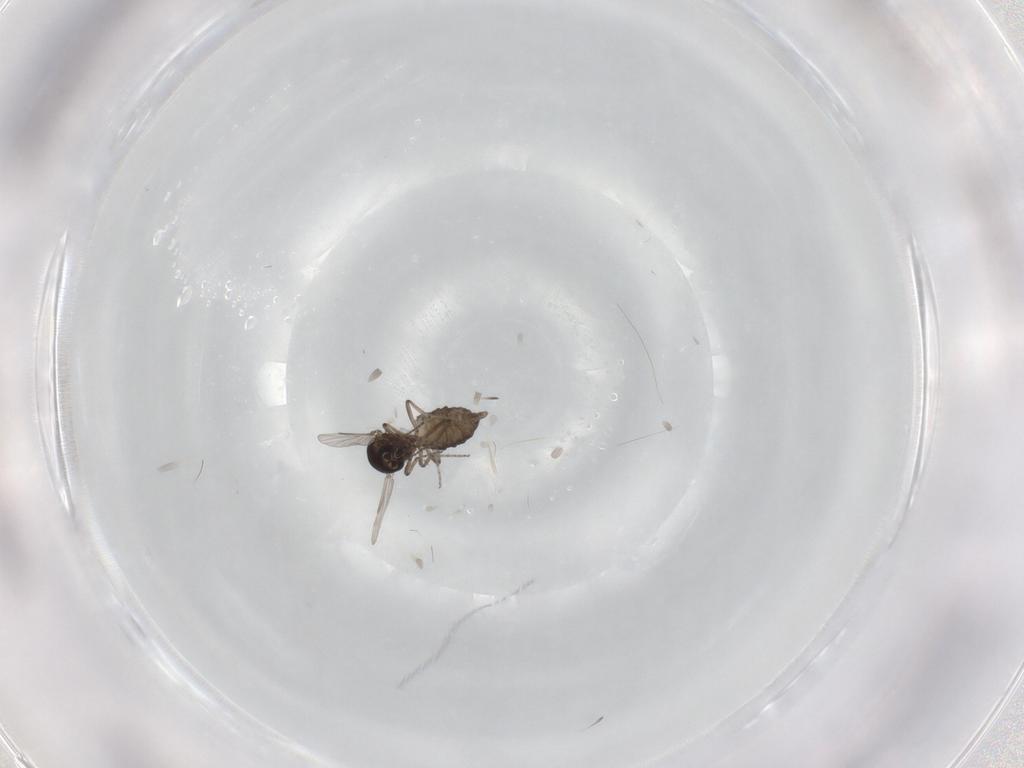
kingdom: Animalia
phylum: Arthropoda
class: Insecta
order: Diptera
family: Ceratopogonidae
